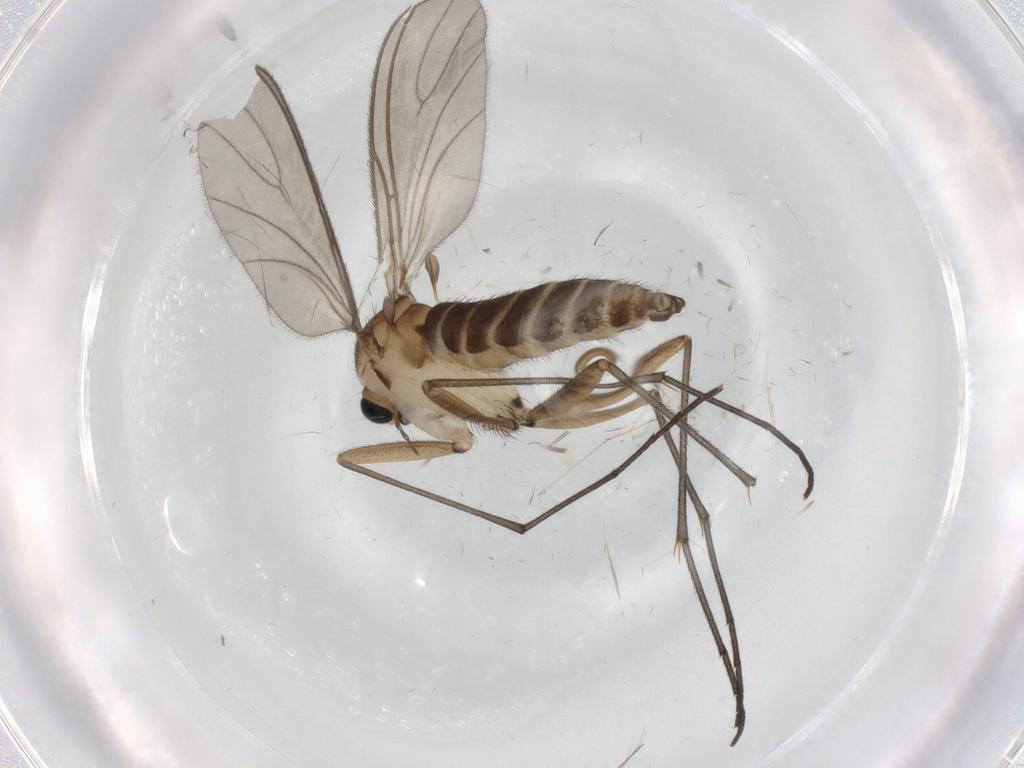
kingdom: Animalia
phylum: Arthropoda
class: Insecta
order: Diptera
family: Sciaridae
